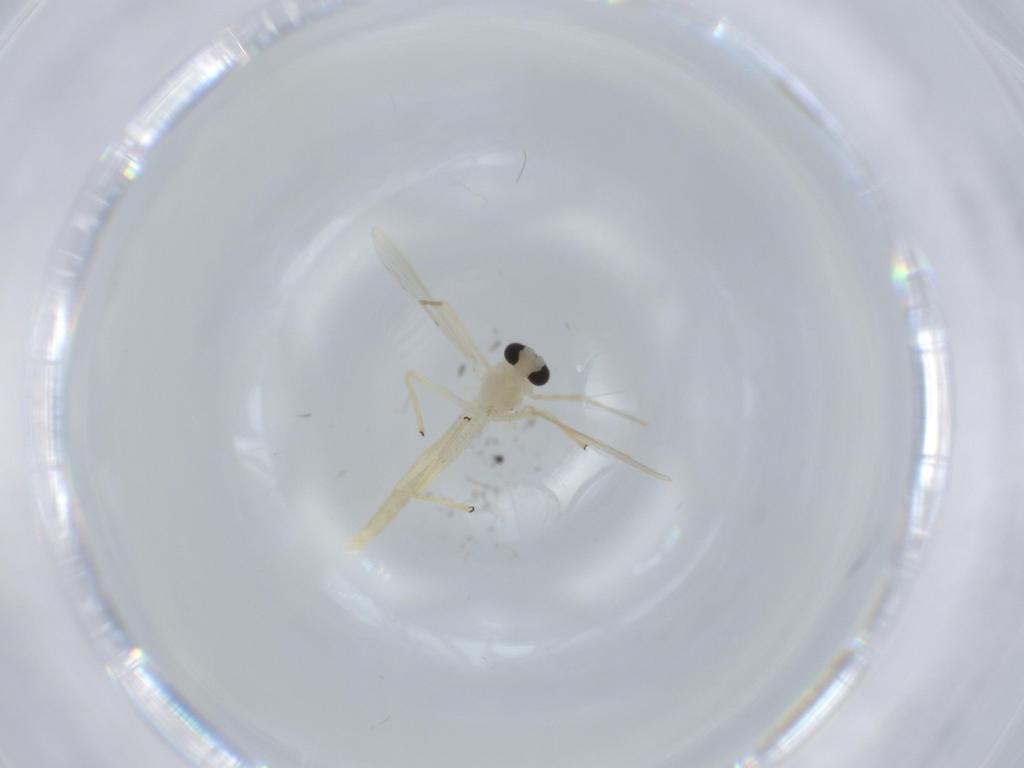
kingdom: Animalia
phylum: Arthropoda
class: Insecta
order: Diptera
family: Chironomidae
